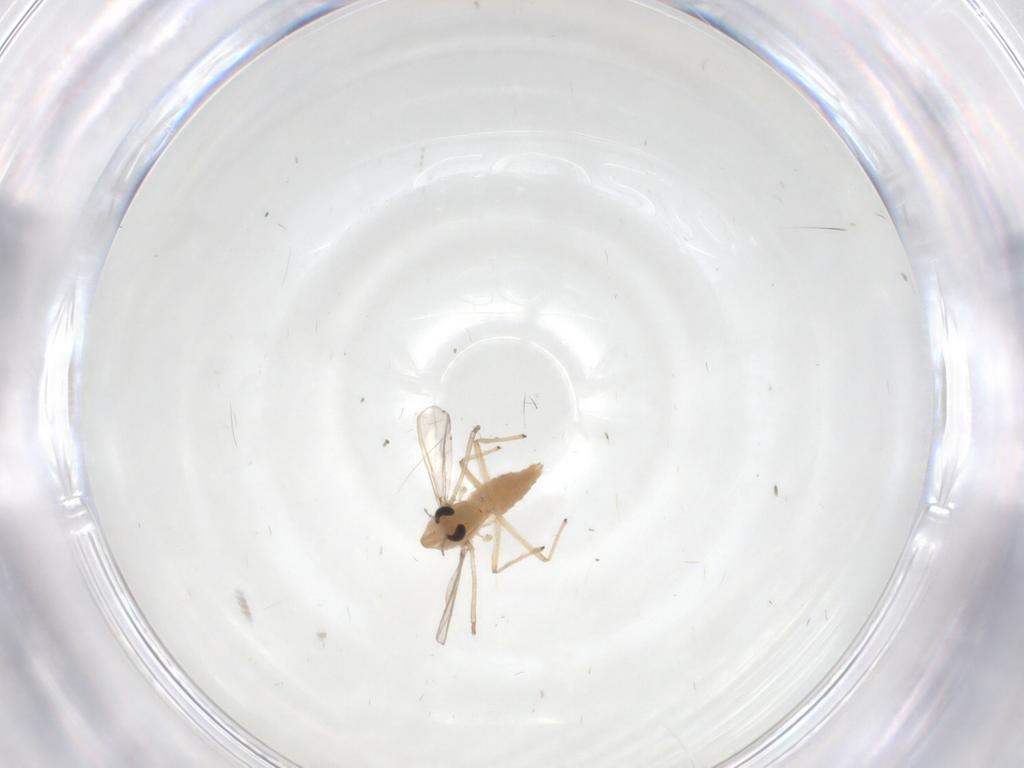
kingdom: Animalia
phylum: Arthropoda
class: Insecta
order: Diptera
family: Chironomidae
